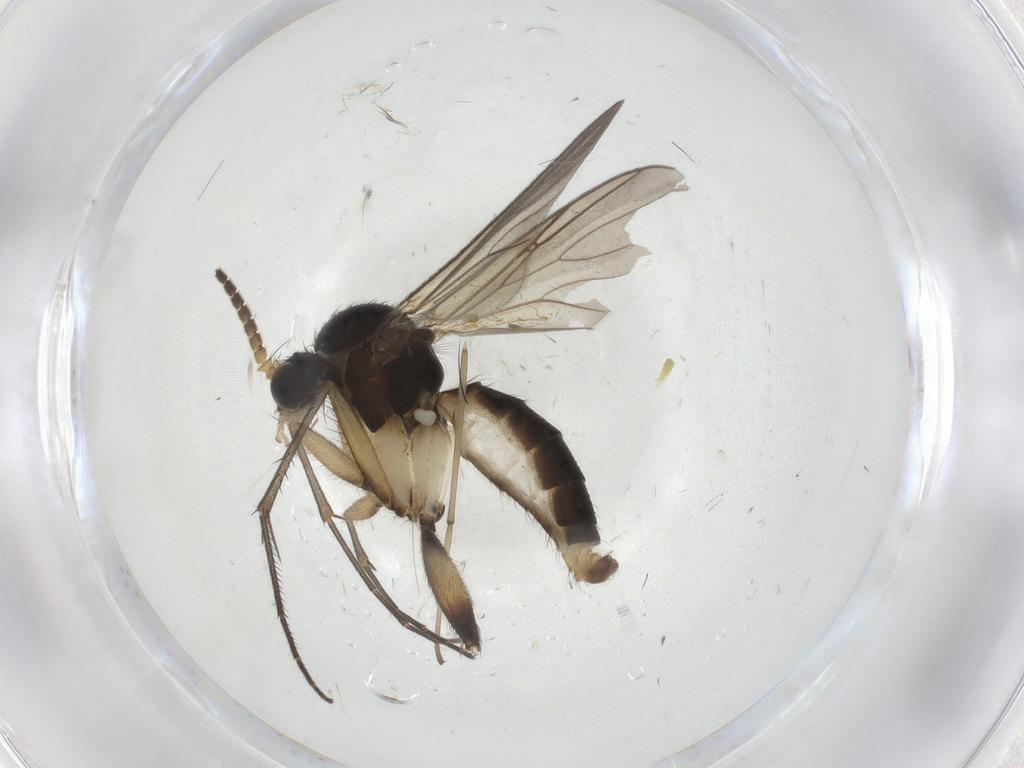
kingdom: Animalia
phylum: Arthropoda
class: Insecta
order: Diptera
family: Chironomidae
